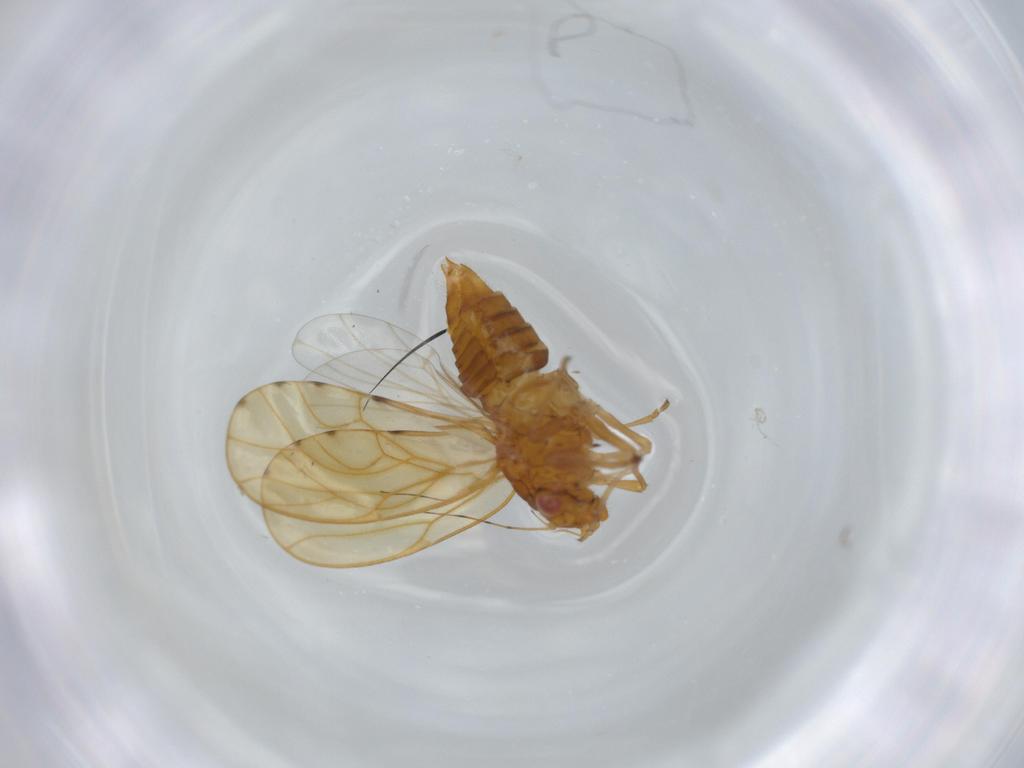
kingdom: Animalia
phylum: Arthropoda
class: Insecta
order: Hemiptera
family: Psylloidea_incertae_sedis
